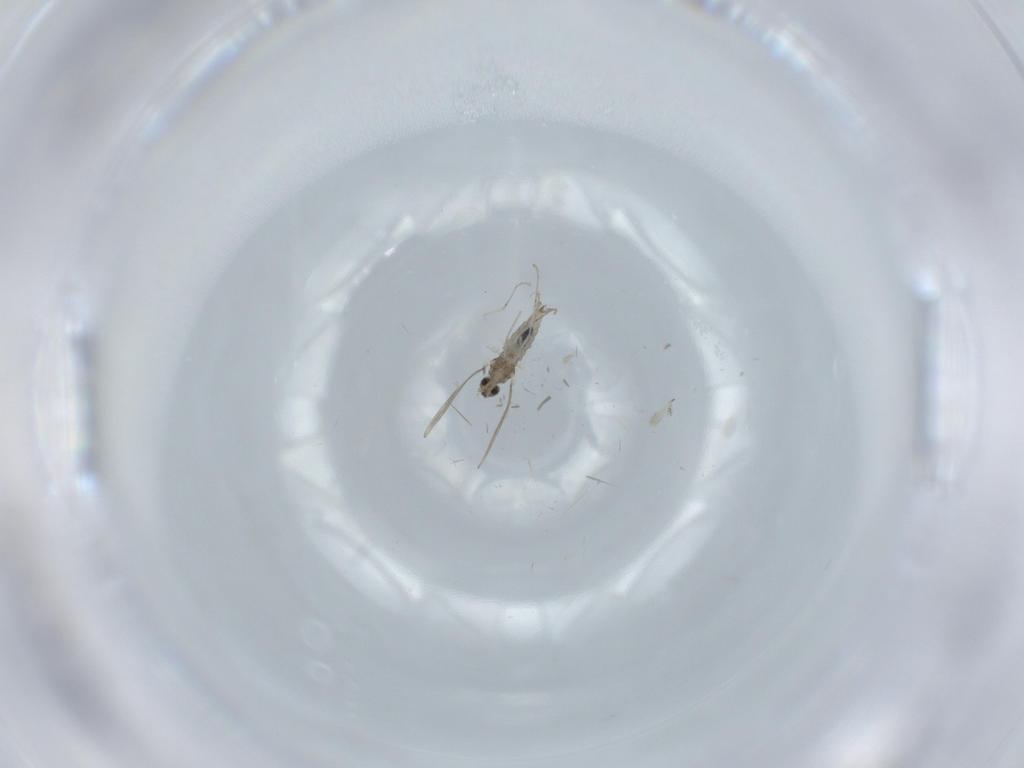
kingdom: Animalia
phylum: Arthropoda
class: Insecta
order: Diptera
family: Cecidomyiidae
